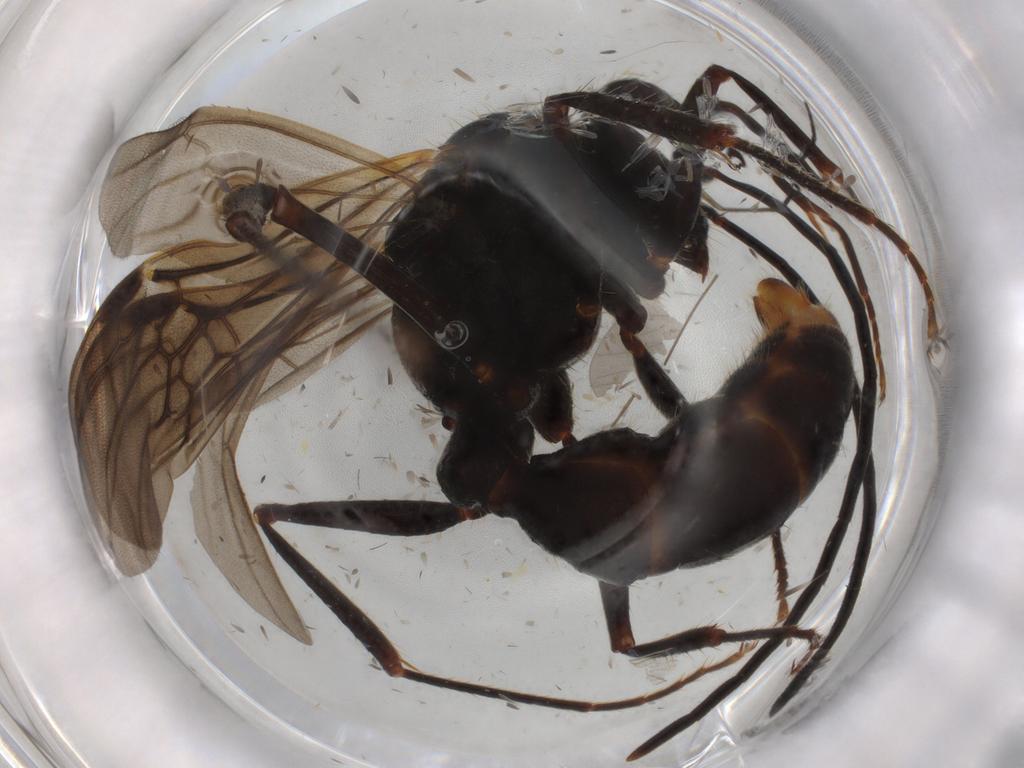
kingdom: Animalia
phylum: Arthropoda
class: Insecta
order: Hymenoptera
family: Formicidae
